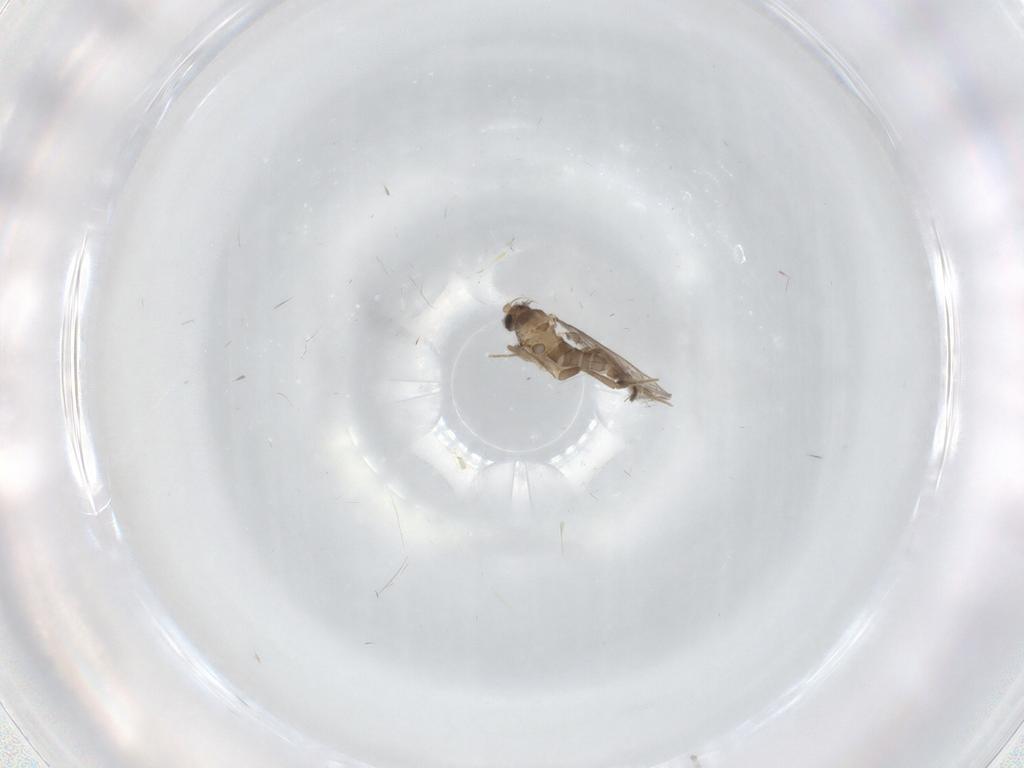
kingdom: Animalia
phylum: Arthropoda
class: Insecta
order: Diptera
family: Sciaridae
